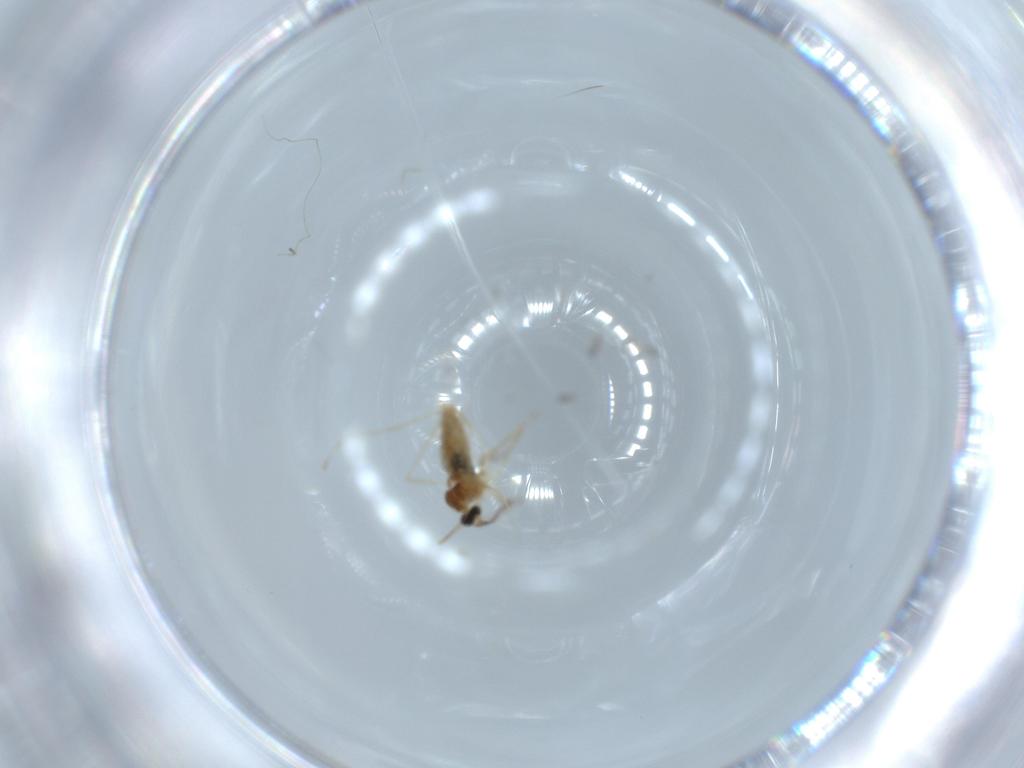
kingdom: Animalia
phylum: Arthropoda
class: Insecta
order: Diptera
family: Cecidomyiidae
